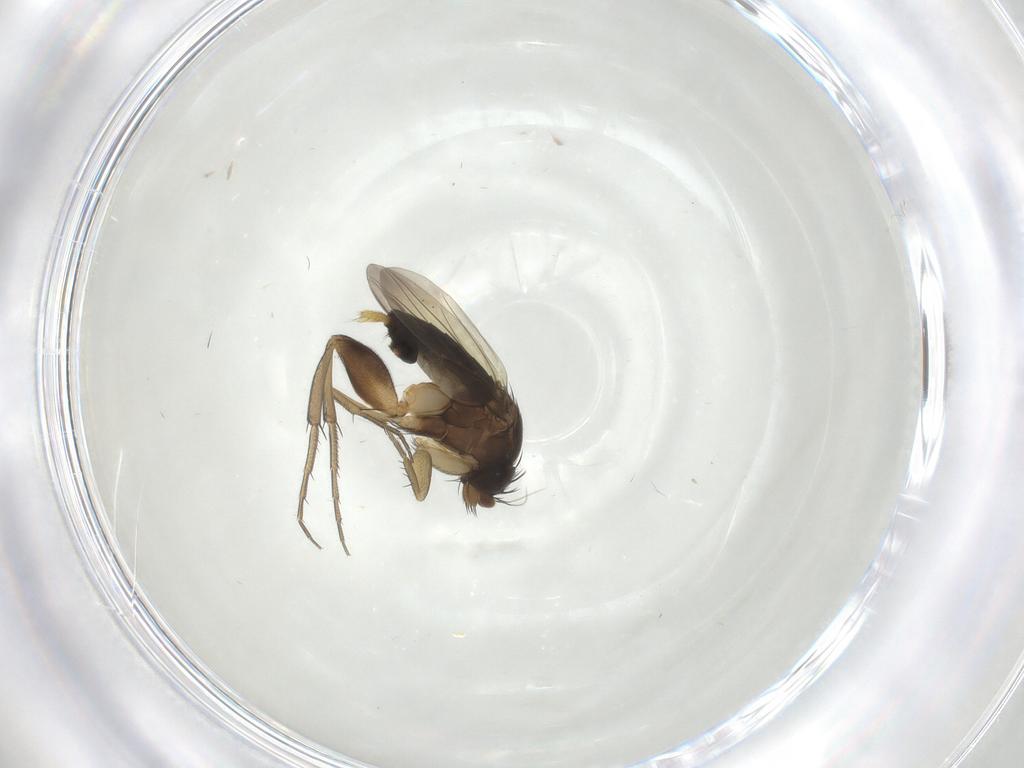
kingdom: Animalia
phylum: Arthropoda
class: Insecta
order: Diptera
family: Phoridae
